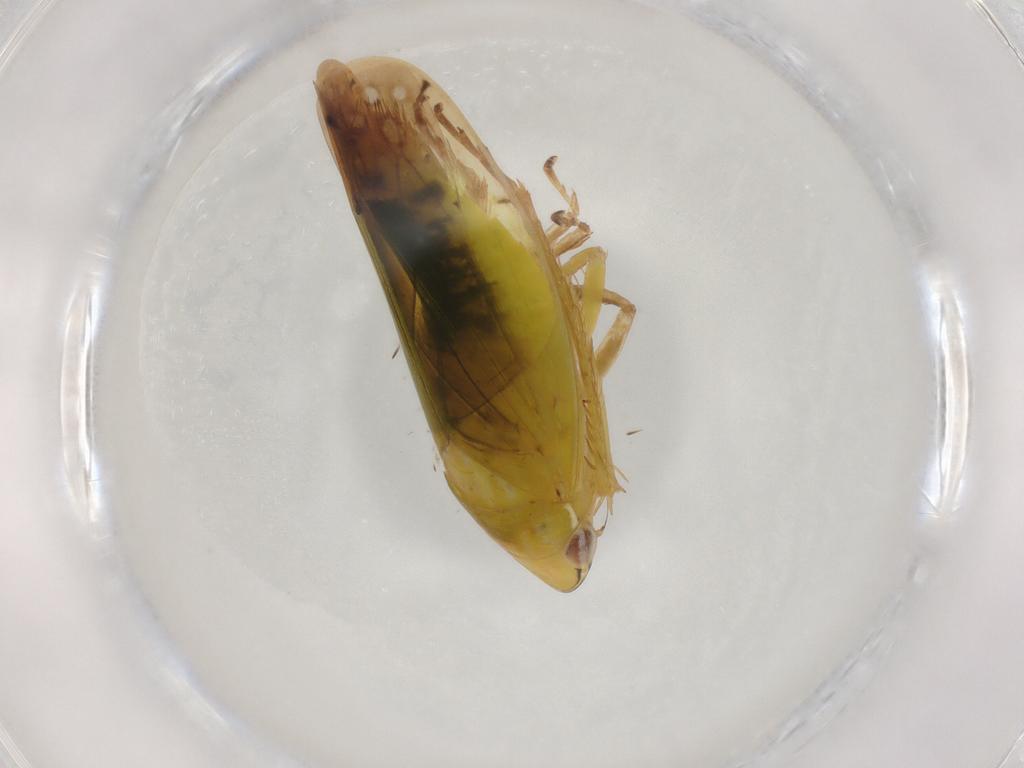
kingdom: Animalia
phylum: Arthropoda
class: Insecta
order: Hemiptera
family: Cicadellidae
